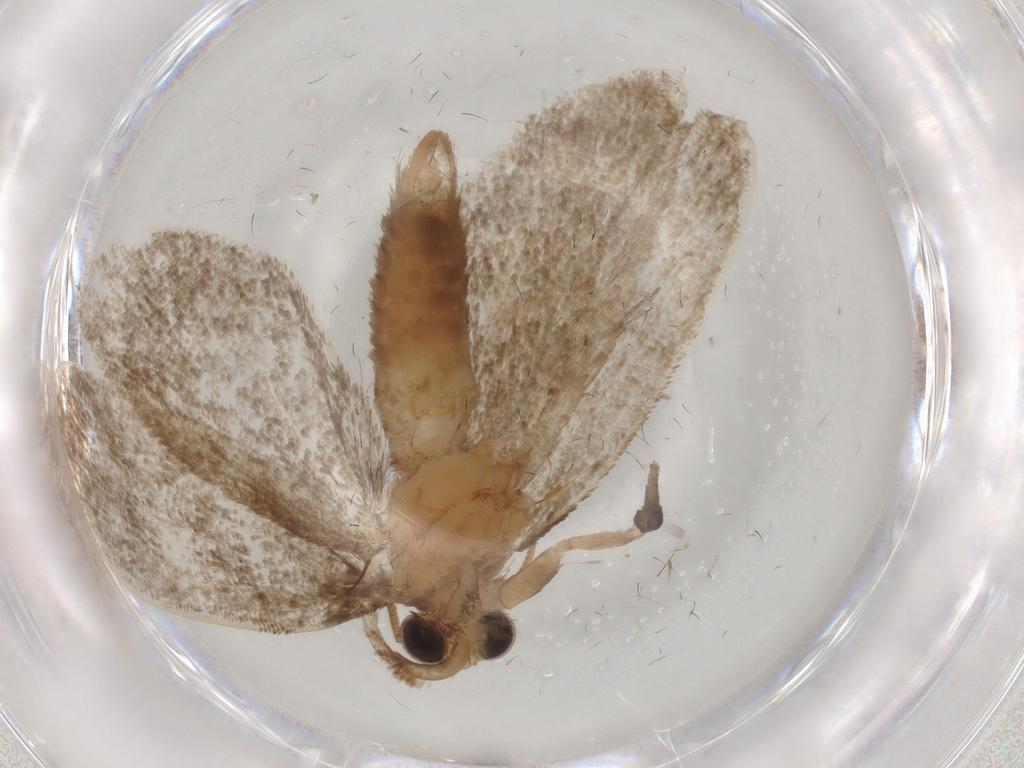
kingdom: Animalia
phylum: Arthropoda
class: Insecta
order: Lepidoptera
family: Tineidae
